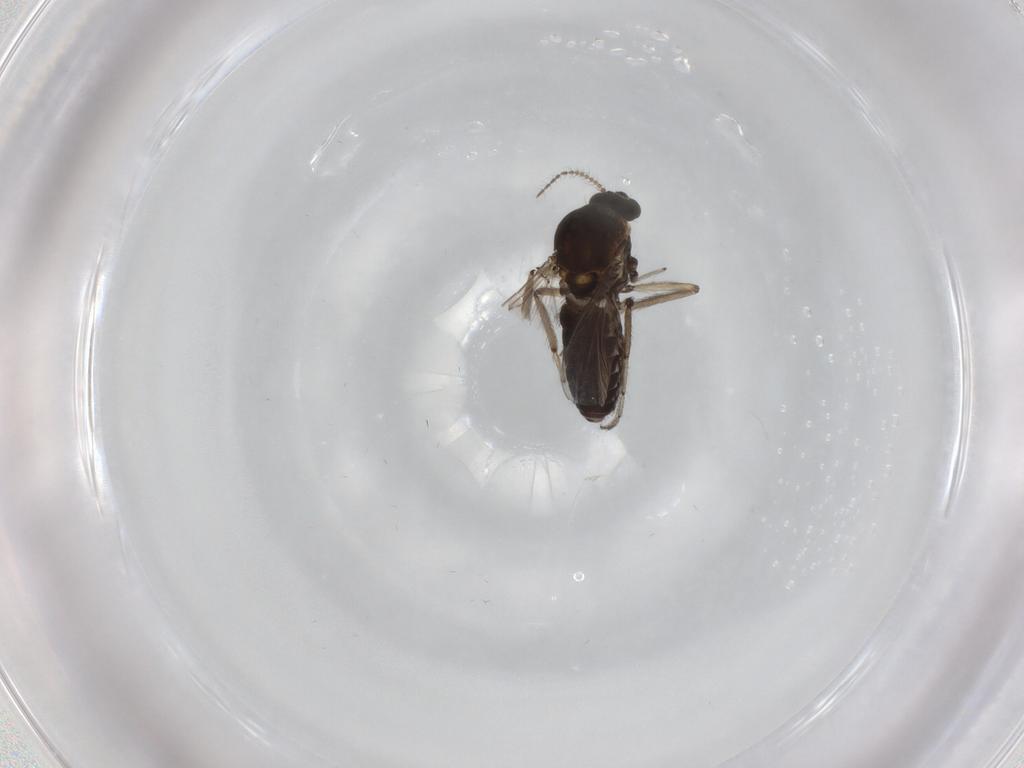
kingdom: Animalia
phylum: Arthropoda
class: Insecta
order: Diptera
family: Ceratopogonidae
